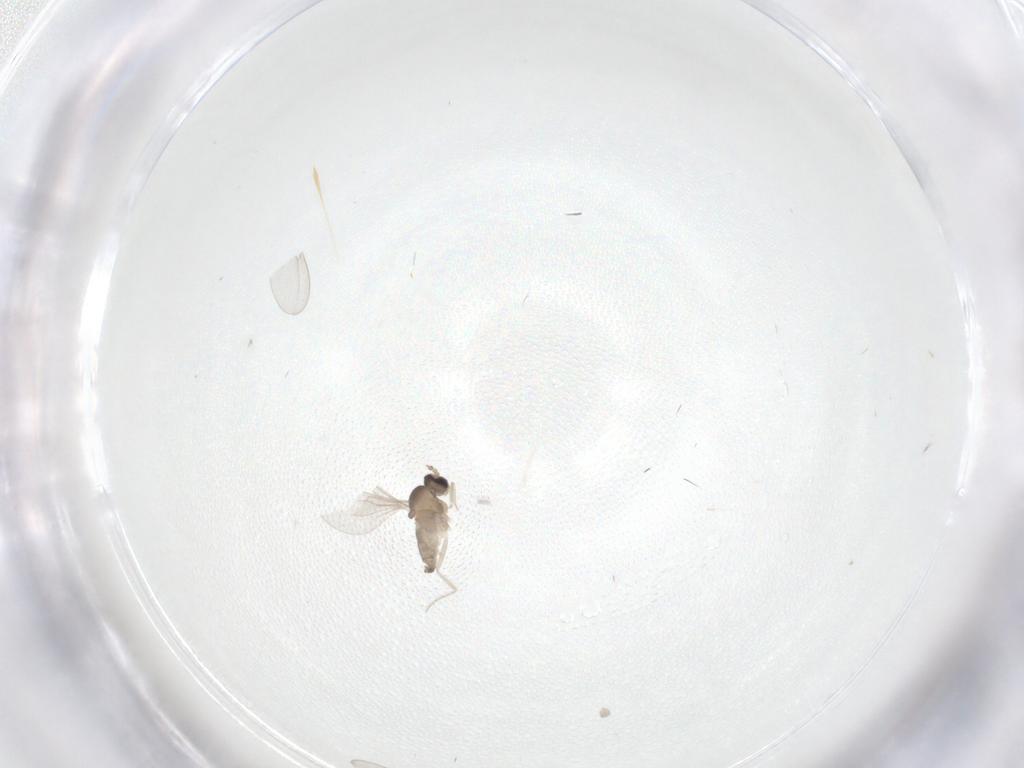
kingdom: Animalia
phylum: Arthropoda
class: Insecta
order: Diptera
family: Cecidomyiidae
